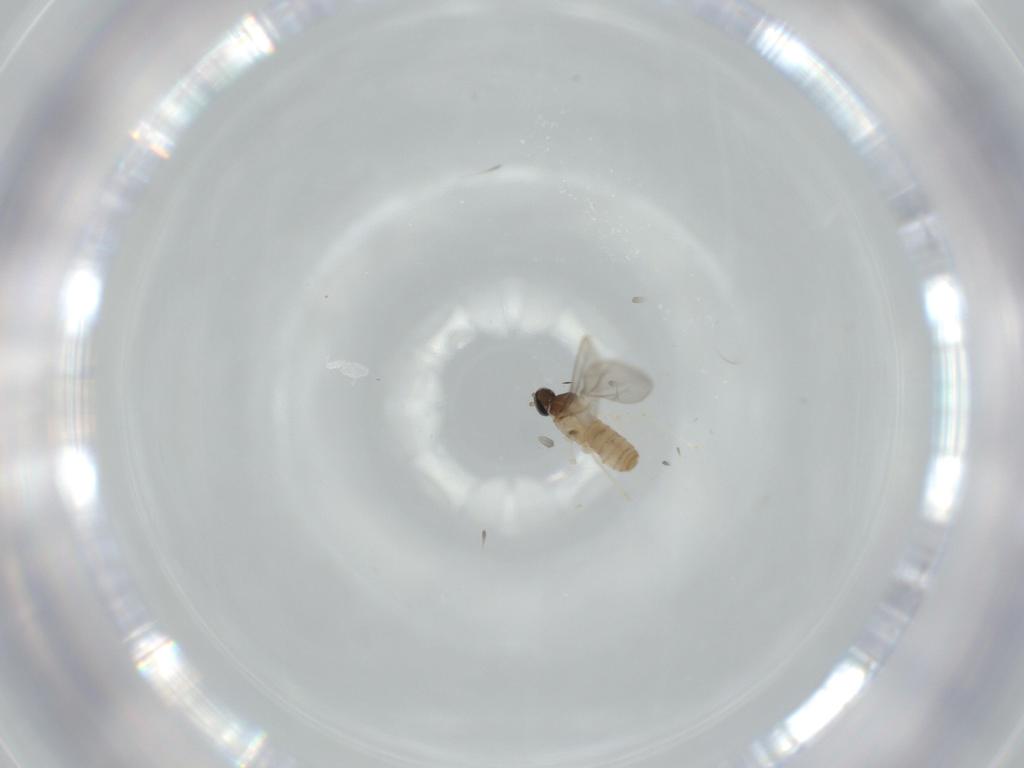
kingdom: Animalia
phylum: Arthropoda
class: Insecta
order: Diptera
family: Cecidomyiidae
